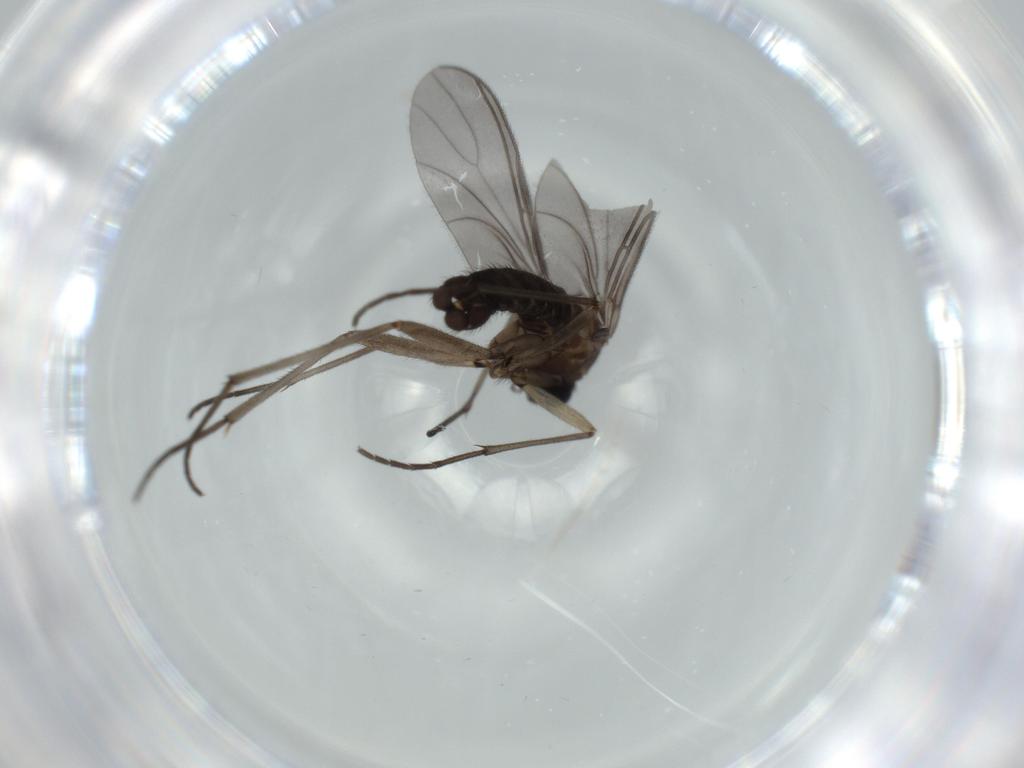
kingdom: Animalia
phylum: Arthropoda
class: Insecta
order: Diptera
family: Sciaridae
